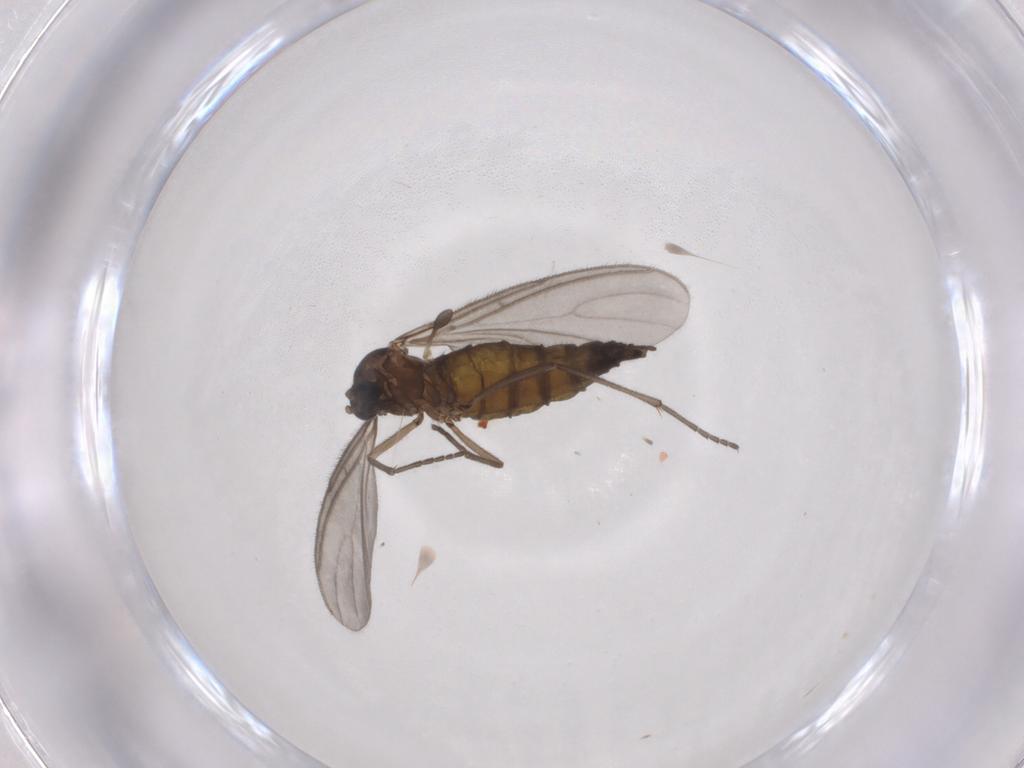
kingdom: Animalia
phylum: Arthropoda
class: Insecta
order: Diptera
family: Sciaridae
